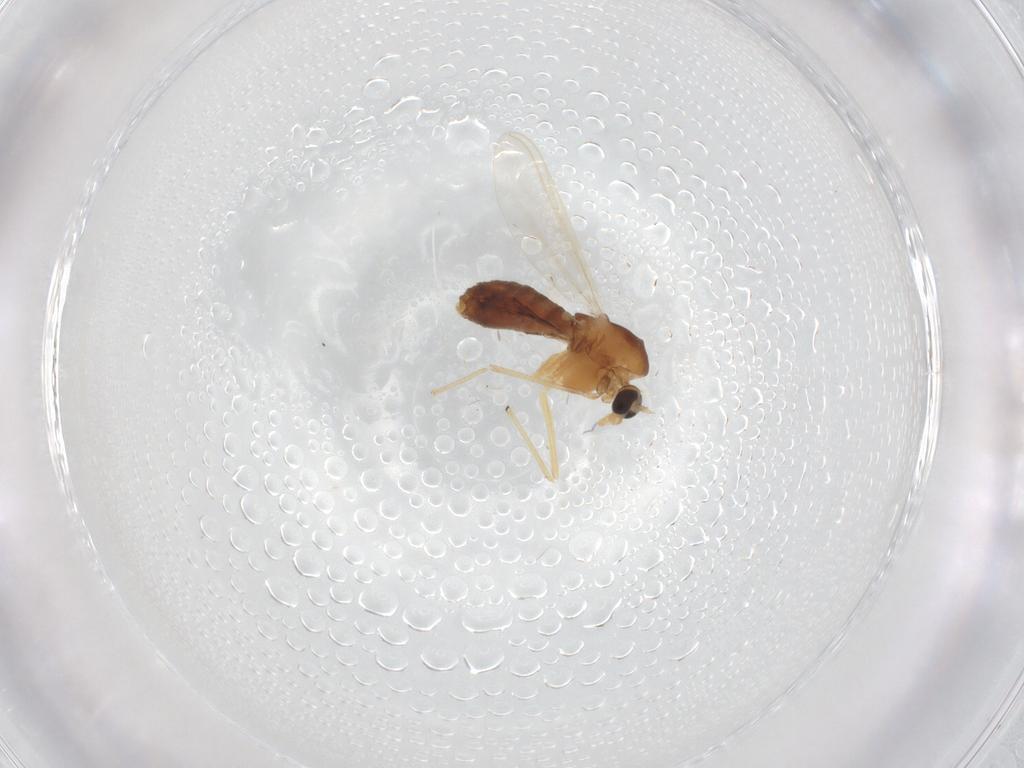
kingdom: Animalia
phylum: Arthropoda
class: Insecta
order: Diptera
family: Chironomidae
